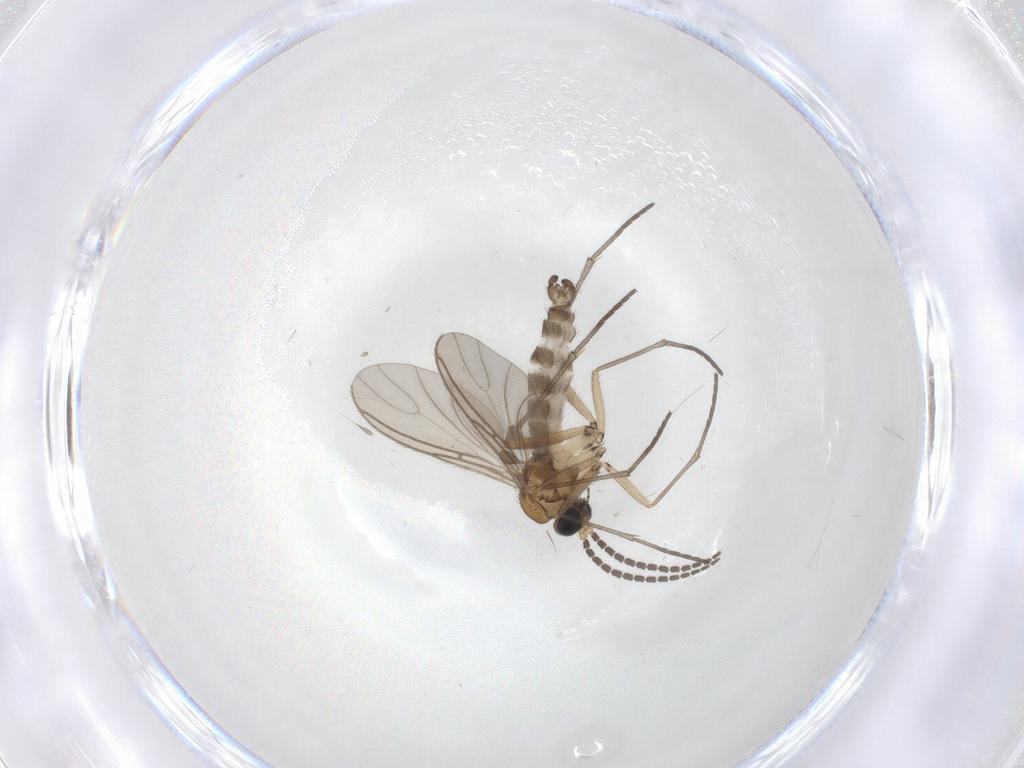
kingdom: Animalia
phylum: Arthropoda
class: Insecta
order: Diptera
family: Sciaridae
